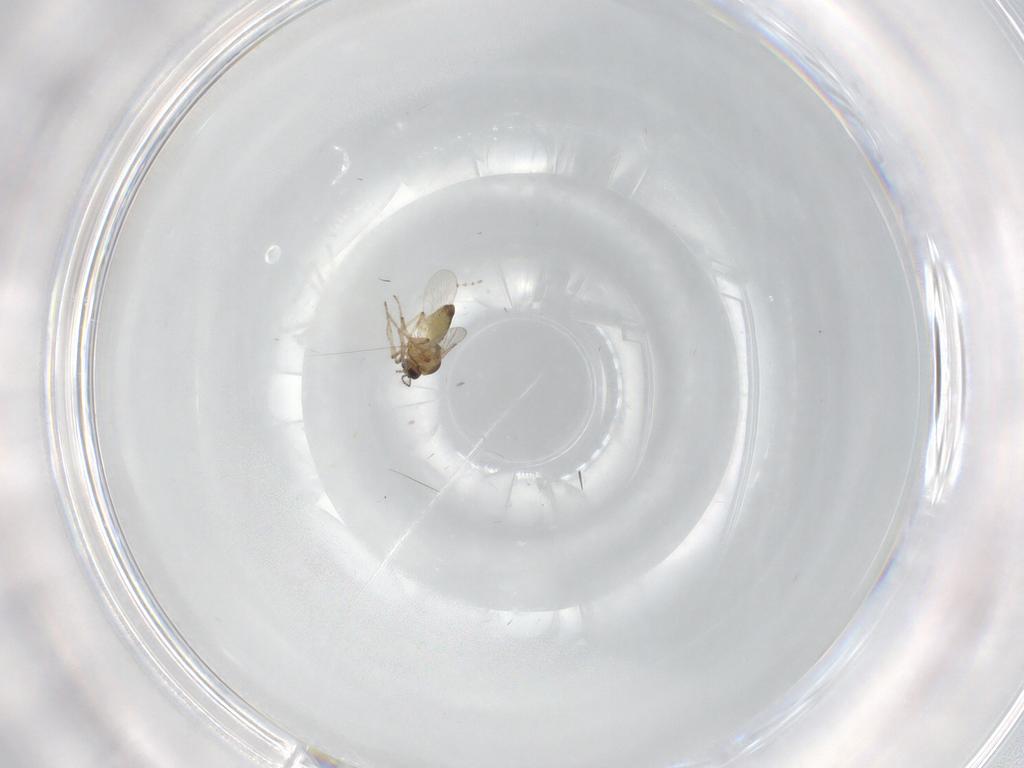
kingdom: Animalia
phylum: Arthropoda
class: Insecta
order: Diptera
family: Ceratopogonidae
